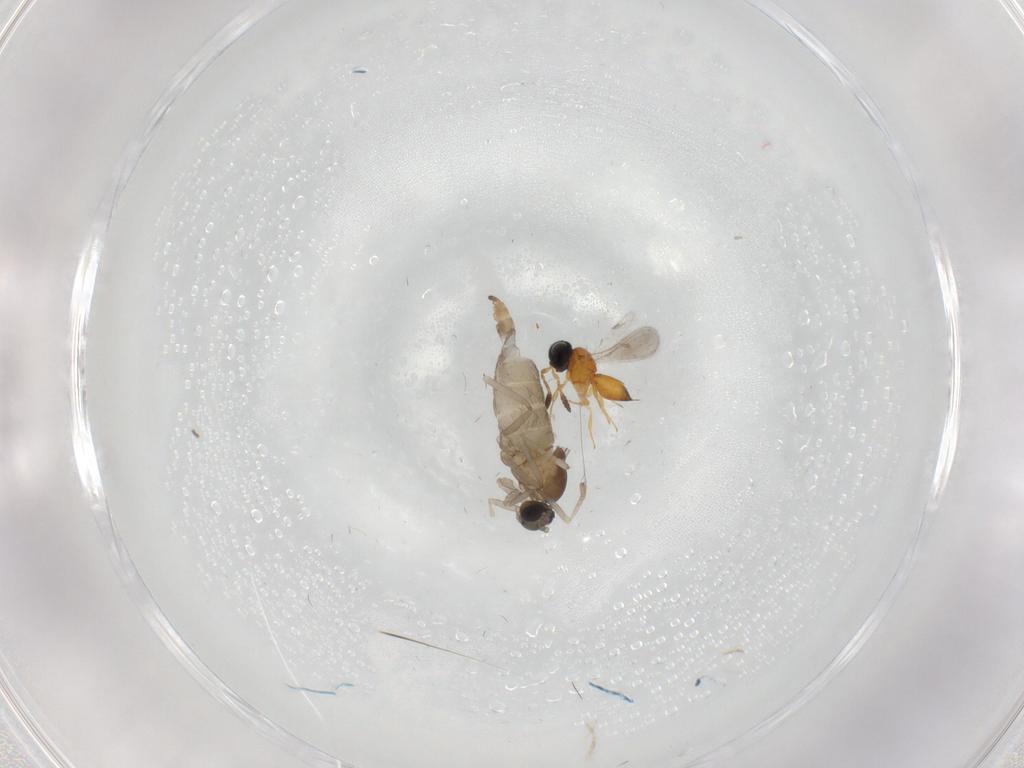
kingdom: Animalia
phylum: Arthropoda
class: Insecta
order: Diptera
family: Cecidomyiidae
